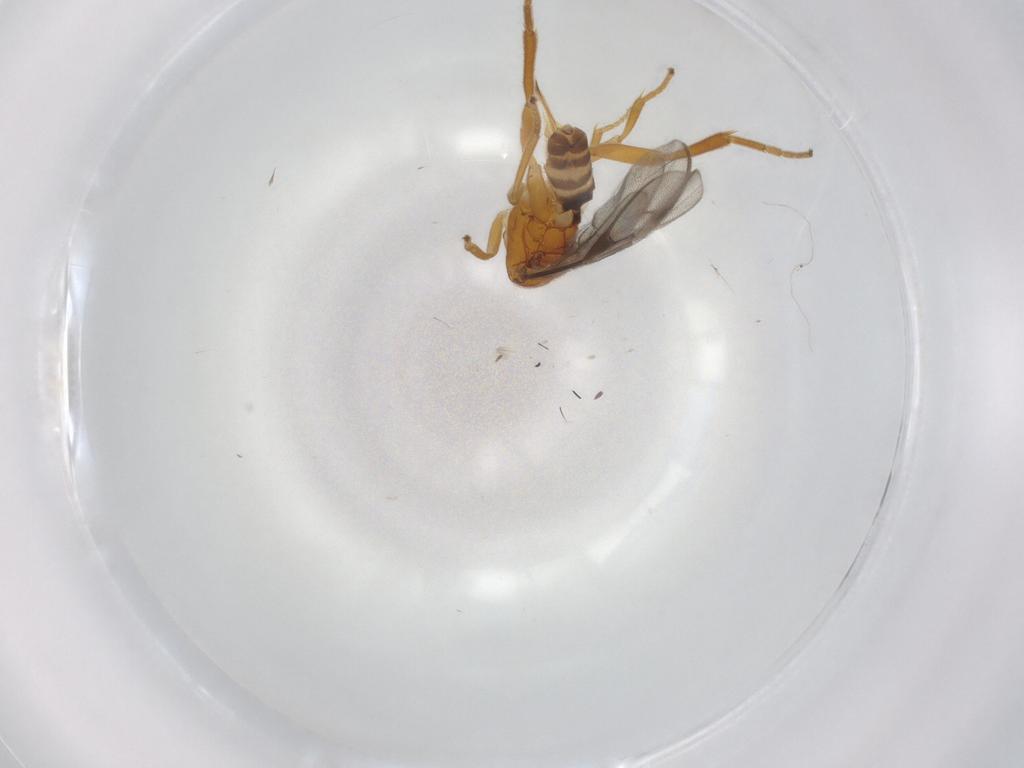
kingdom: Animalia
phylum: Arthropoda
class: Insecta
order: Hymenoptera
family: Braconidae
